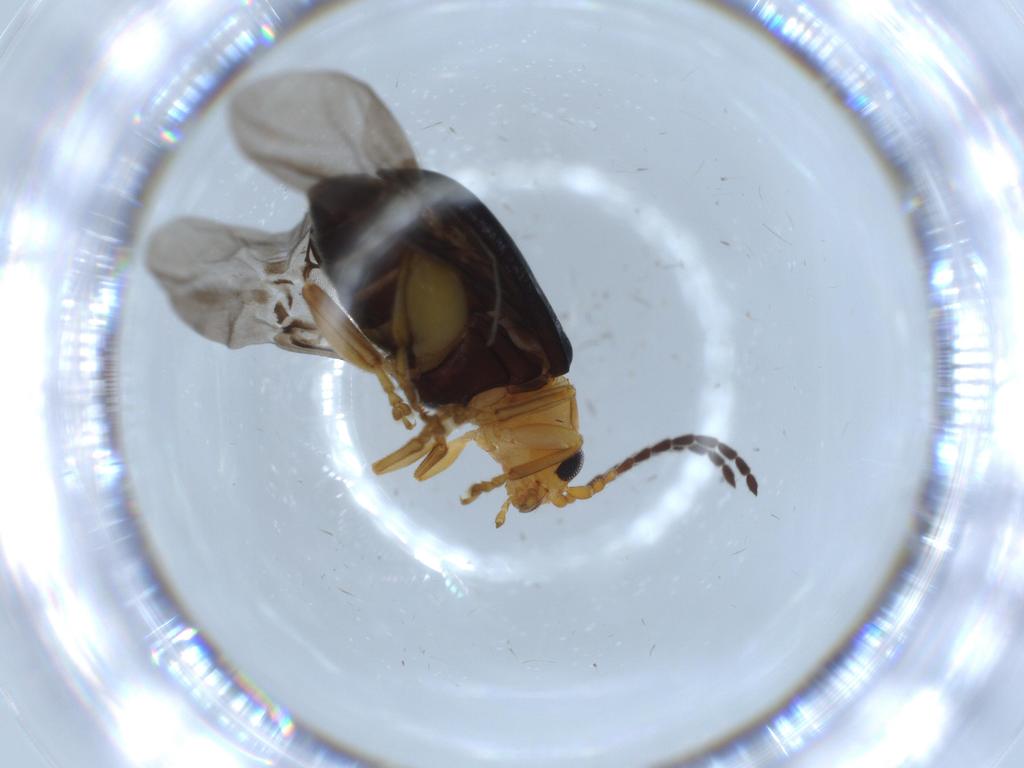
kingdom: Animalia
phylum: Arthropoda
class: Insecta
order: Coleoptera
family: Chrysomelidae
